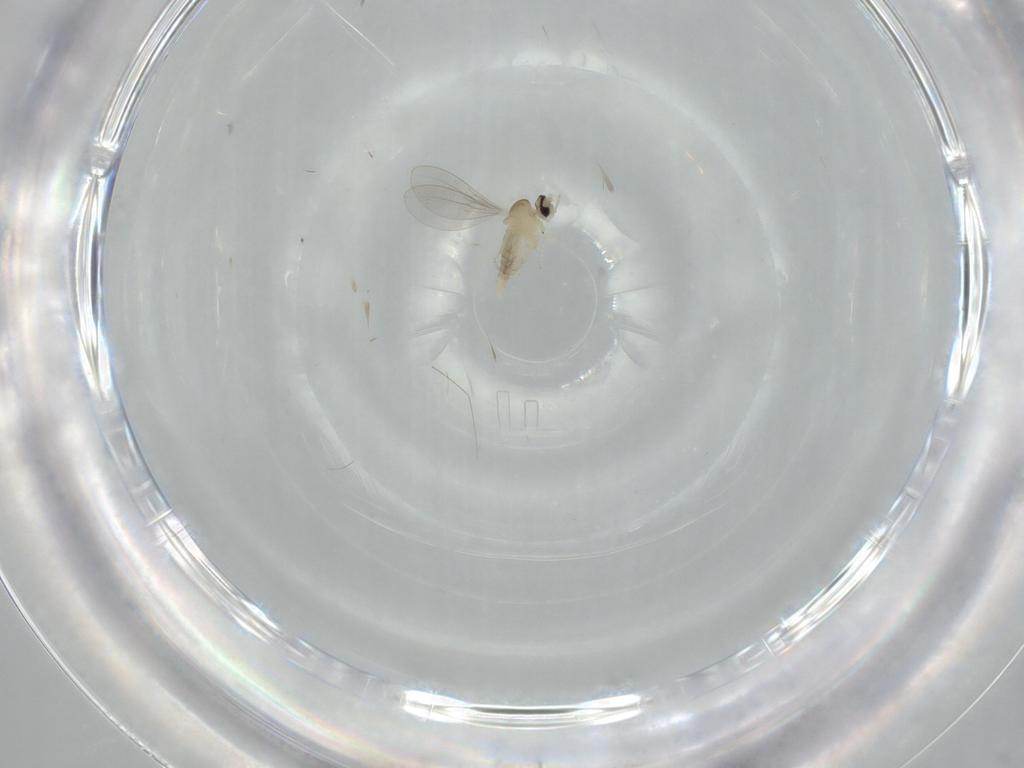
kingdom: Animalia
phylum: Arthropoda
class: Insecta
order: Diptera
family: Cecidomyiidae
